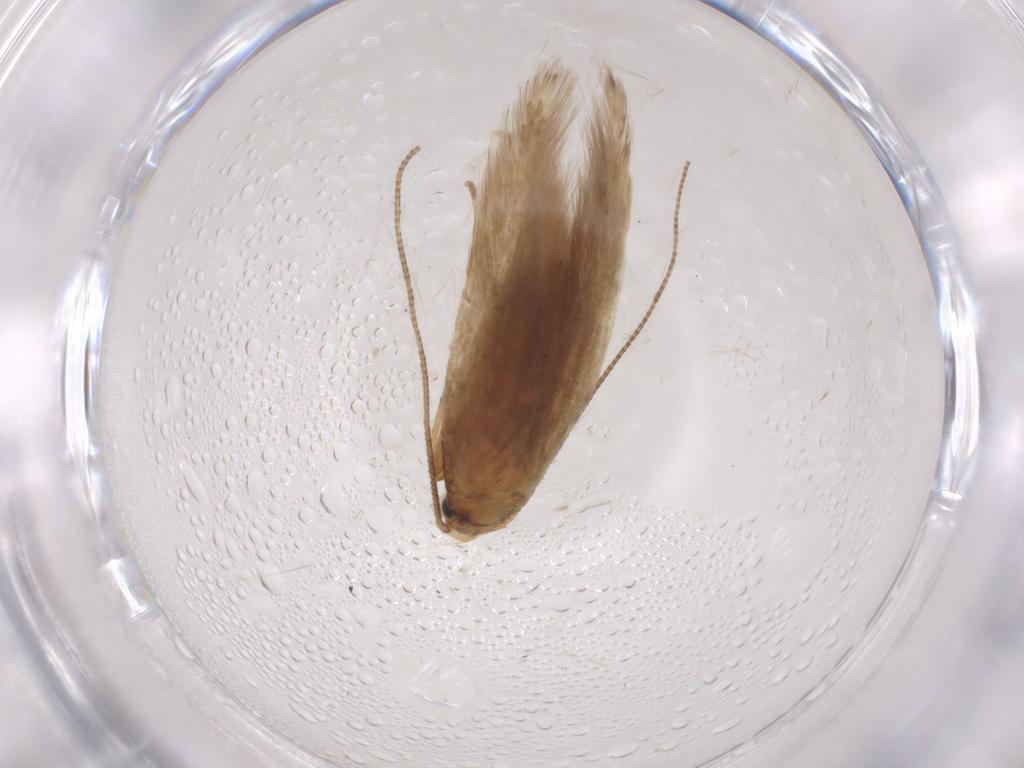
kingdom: Animalia
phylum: Arthropoda
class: Insecta
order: Lepidoptera
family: Tineidae
